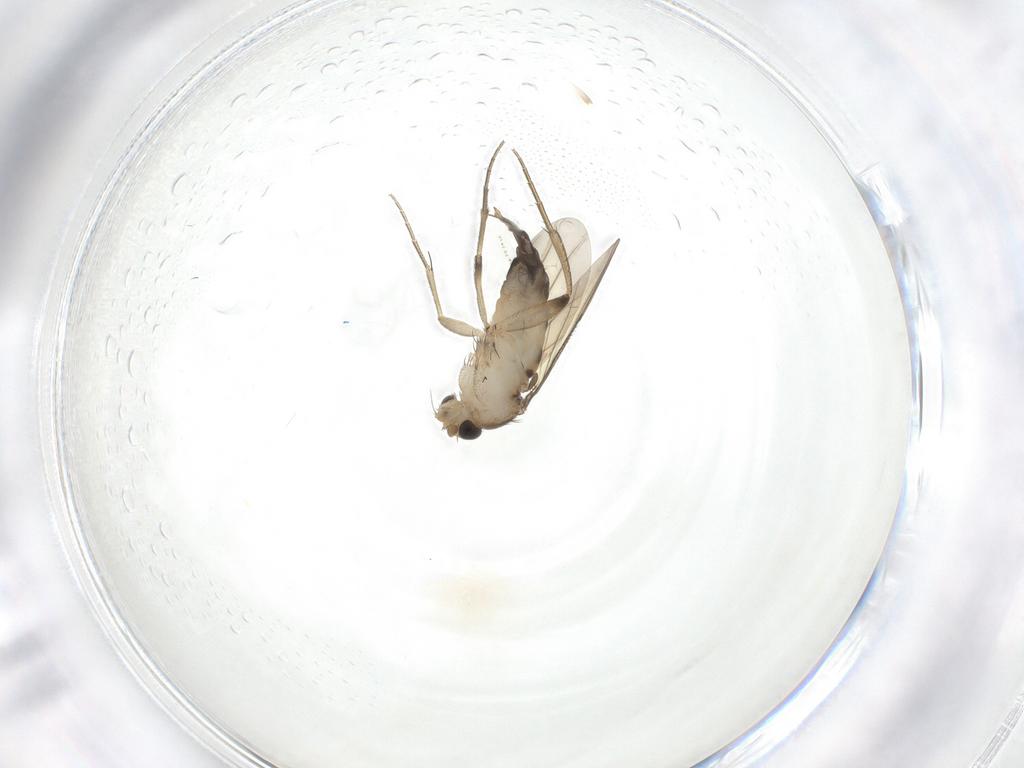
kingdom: Animalia
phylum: Arthropoda
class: Insecta
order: Diptera
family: Phoridae
